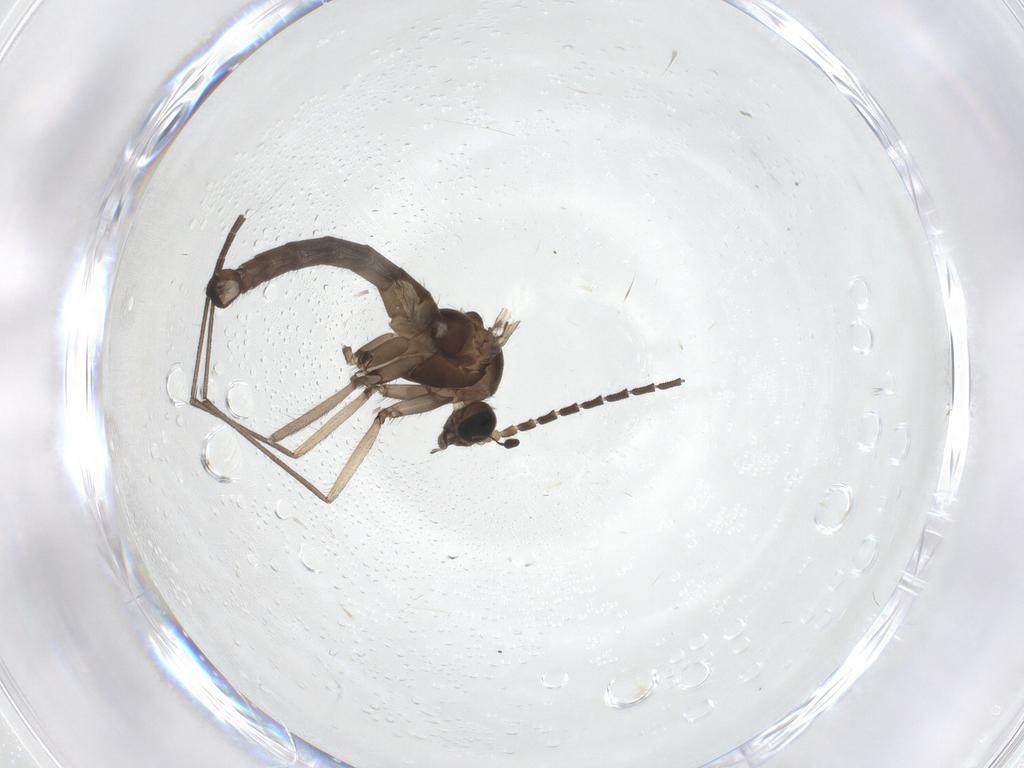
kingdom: Animalia
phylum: Arthropoda
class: Insecta
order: Diptera
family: Sciaridae
